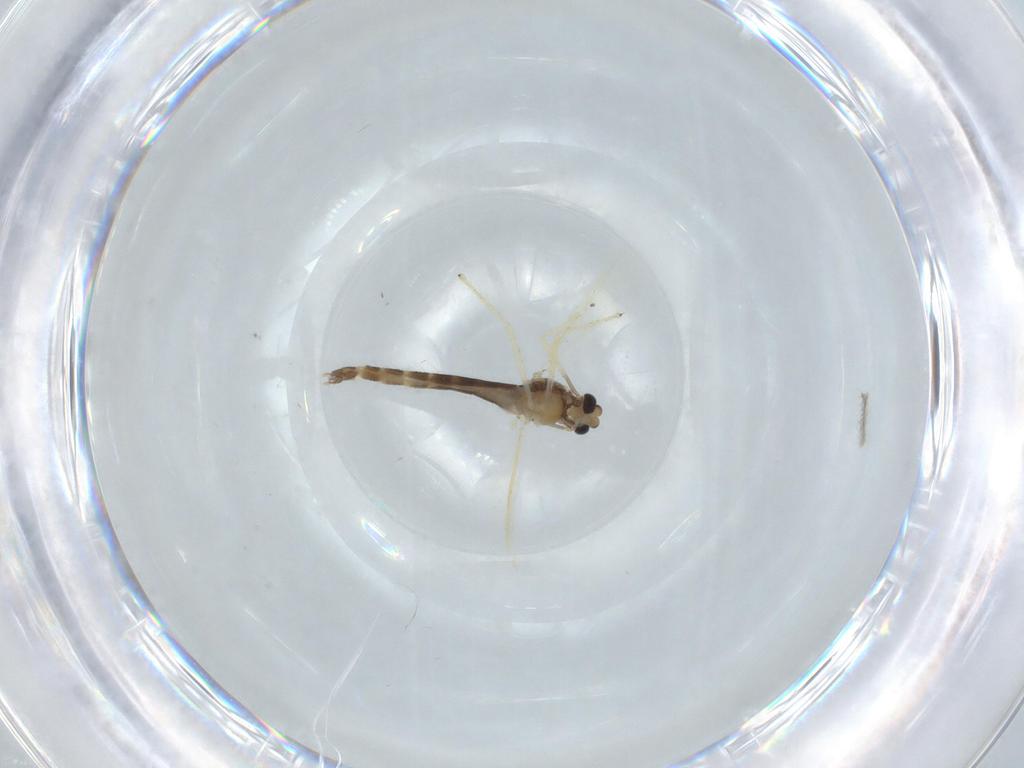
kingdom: Animalia
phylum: Arthropoda
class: Insecta
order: Diptera
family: Chironomidae
